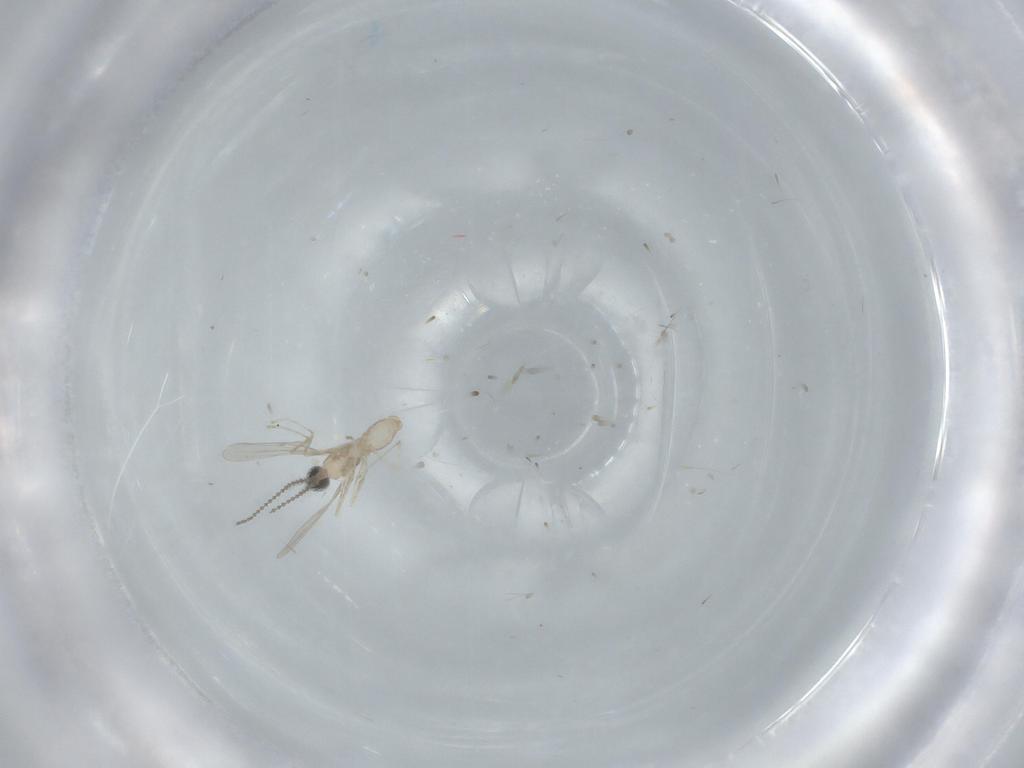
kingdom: Animalia
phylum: Arthropoda
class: Insecta
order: Diptera
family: Cecidomyiidae
